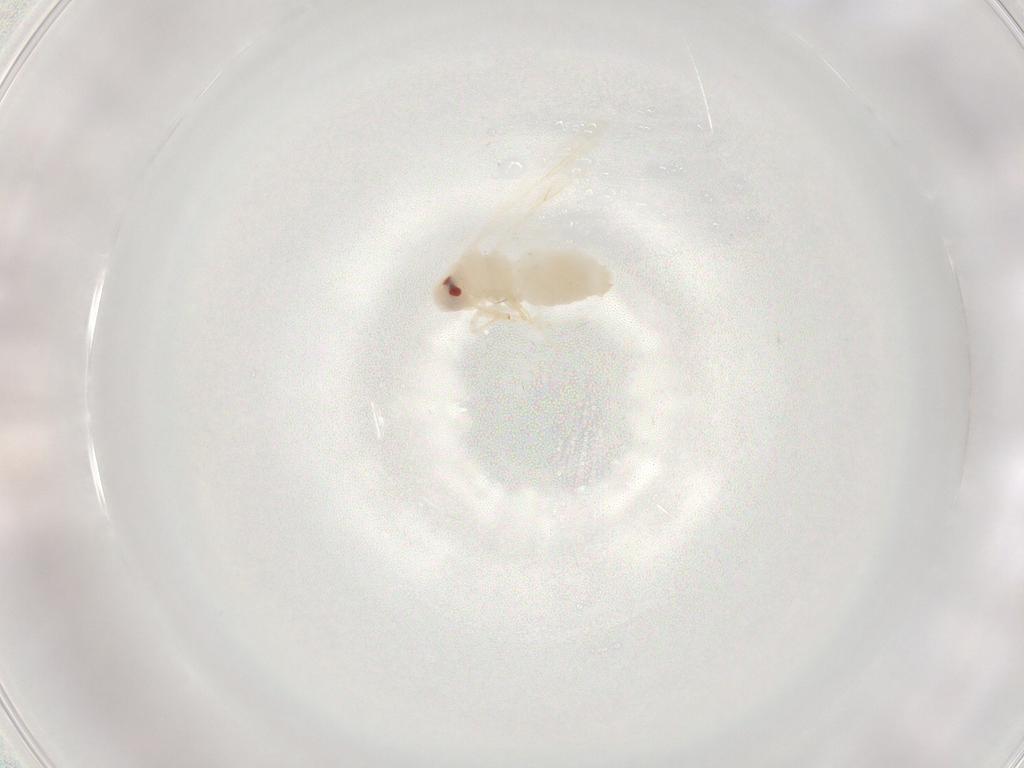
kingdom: Animalia
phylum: Arthropoda
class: Insecta
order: Hemiptera
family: Aleyrodidae
